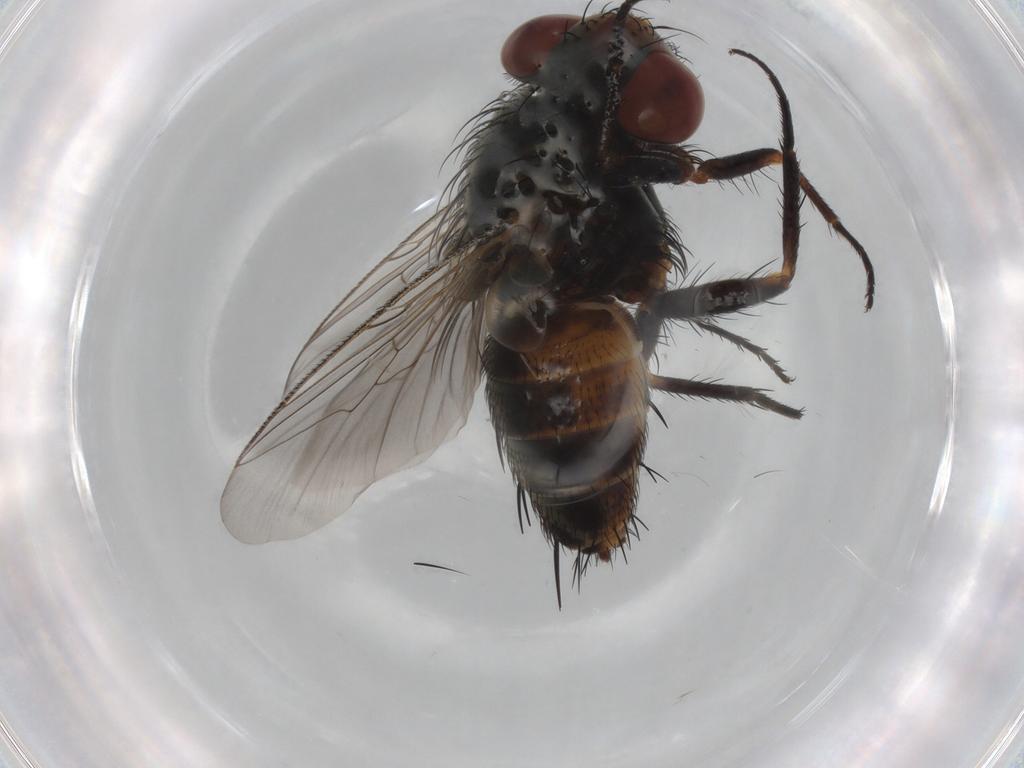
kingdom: Animalia
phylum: Arthropoda
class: Insecta
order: Diptera
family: Sarcophagidae
